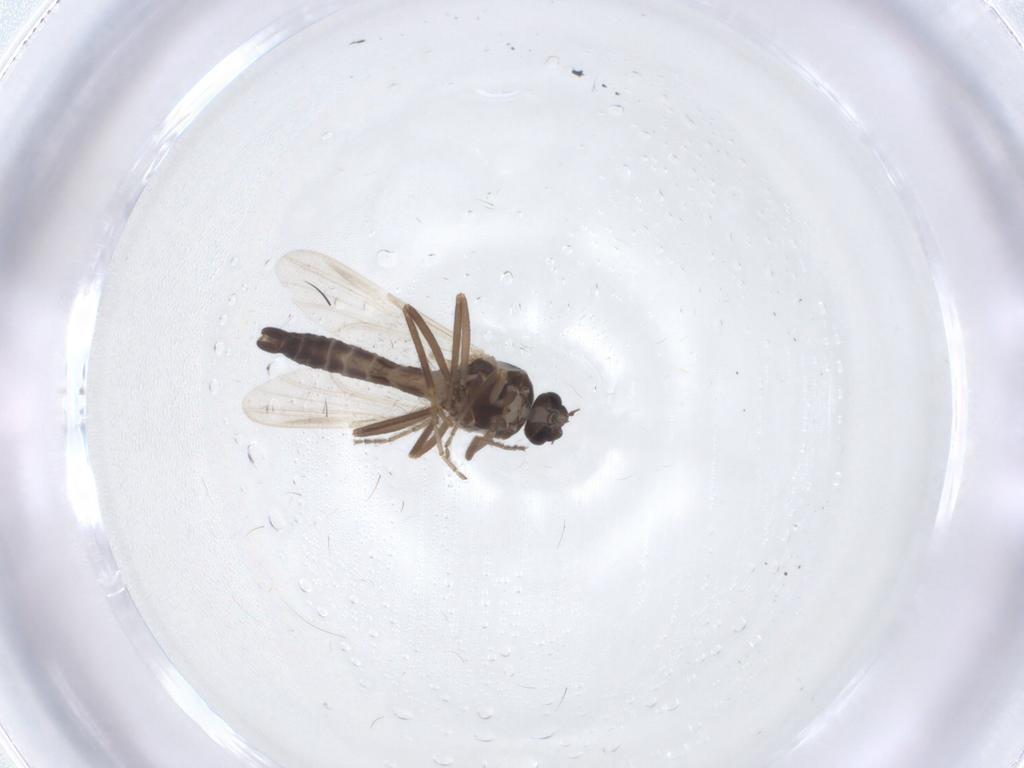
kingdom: Animalia
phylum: Arthropoda
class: Insecta
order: Diptera
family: Ceratopogonidae
